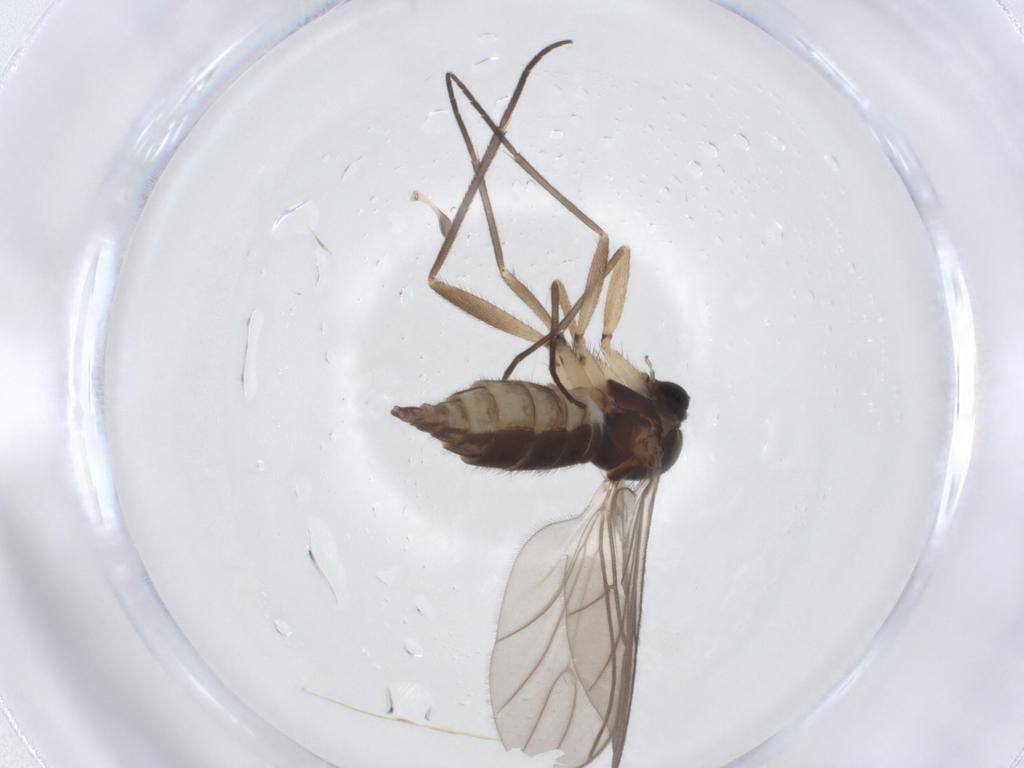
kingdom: Animalia
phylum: Arthropoda
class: Insecta
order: Diptera
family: Sciaridae
